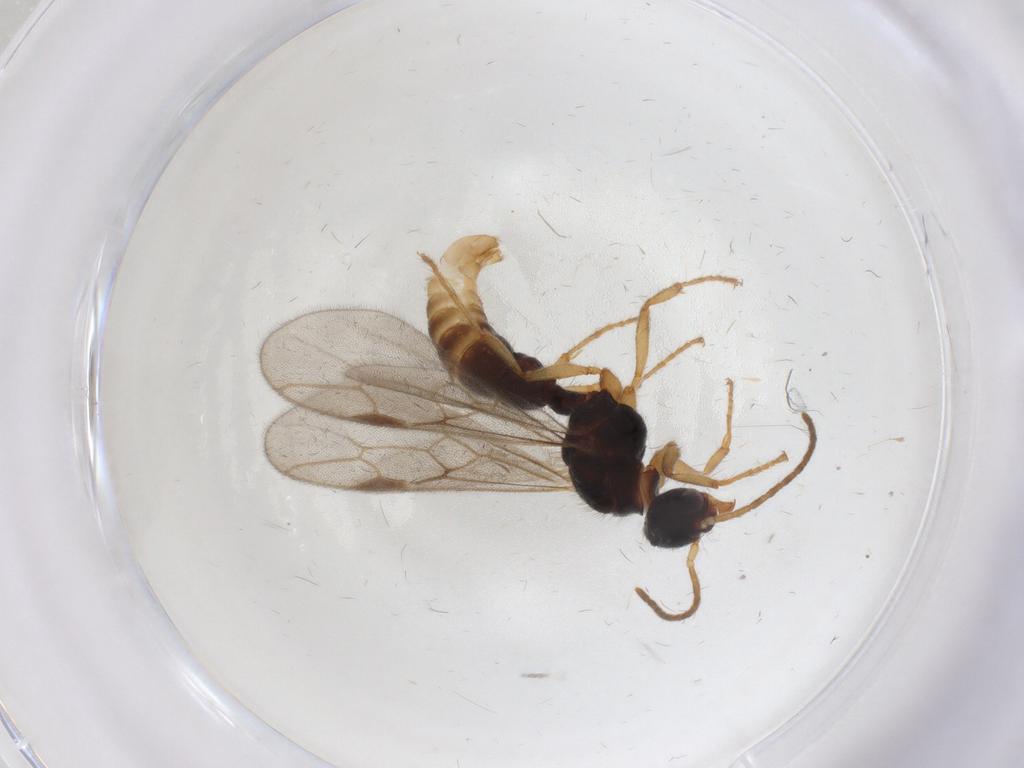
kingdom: Animalia
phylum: Arthropoda
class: Insecta
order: Hymenoptera
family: Formicidae
